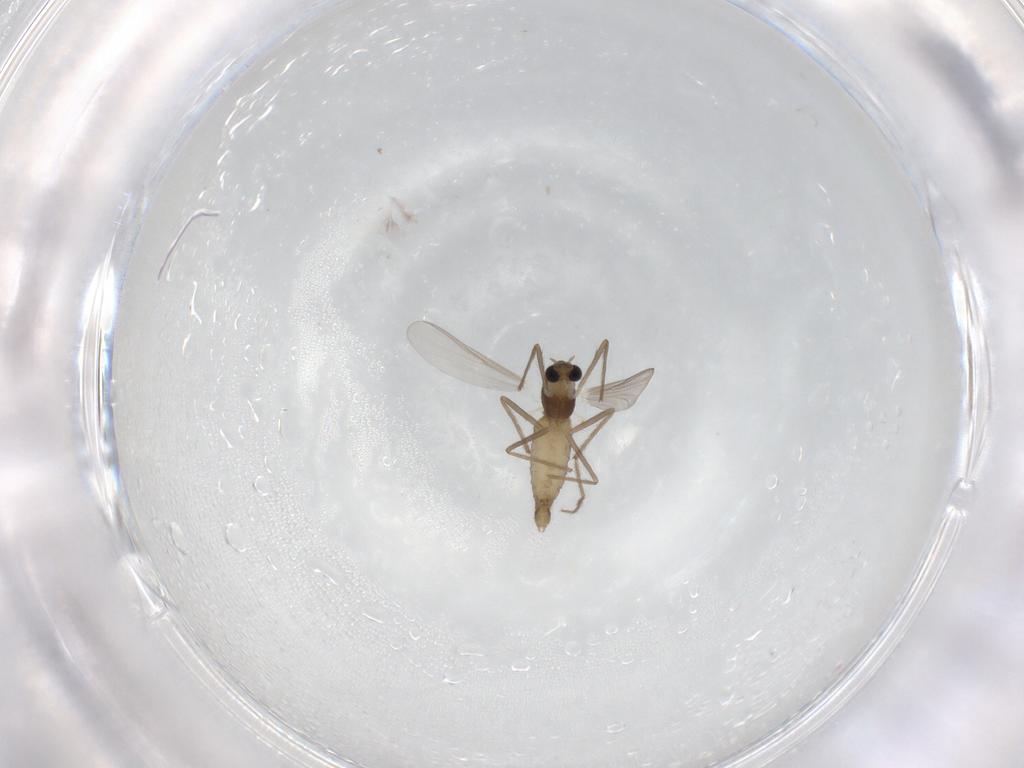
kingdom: Animalia
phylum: Arthropoda
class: Insecta
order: Diptera
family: Chironomidae
